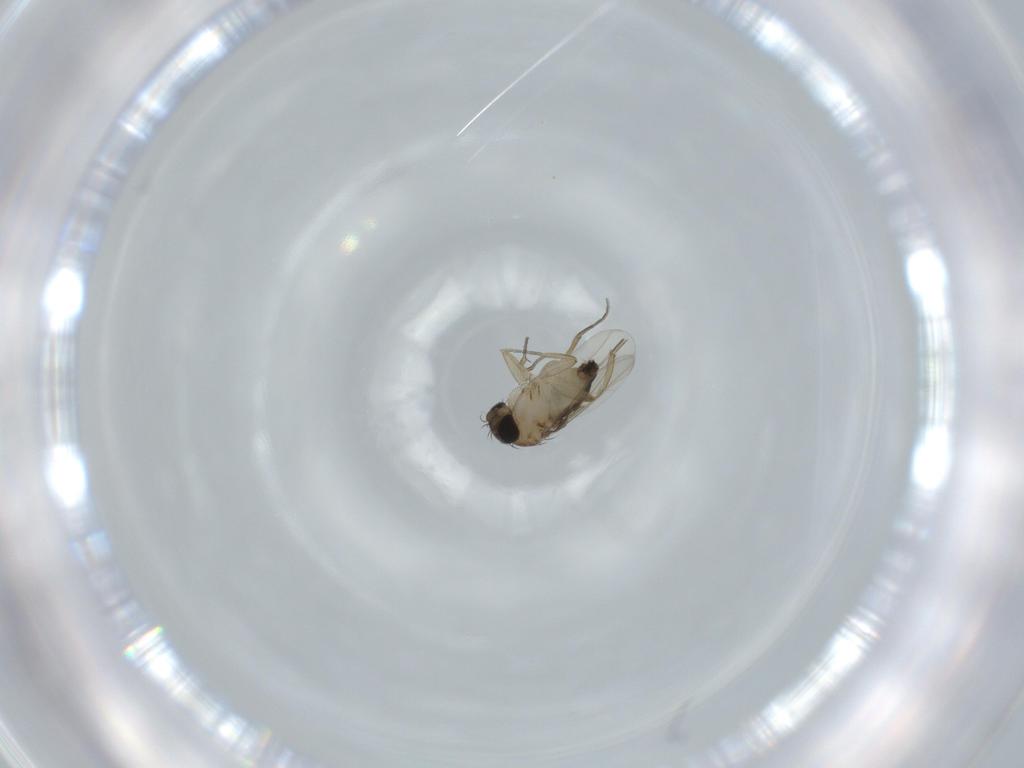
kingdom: Animalia
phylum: Arthropoda
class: Insecta
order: Diptera
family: Phoridae
